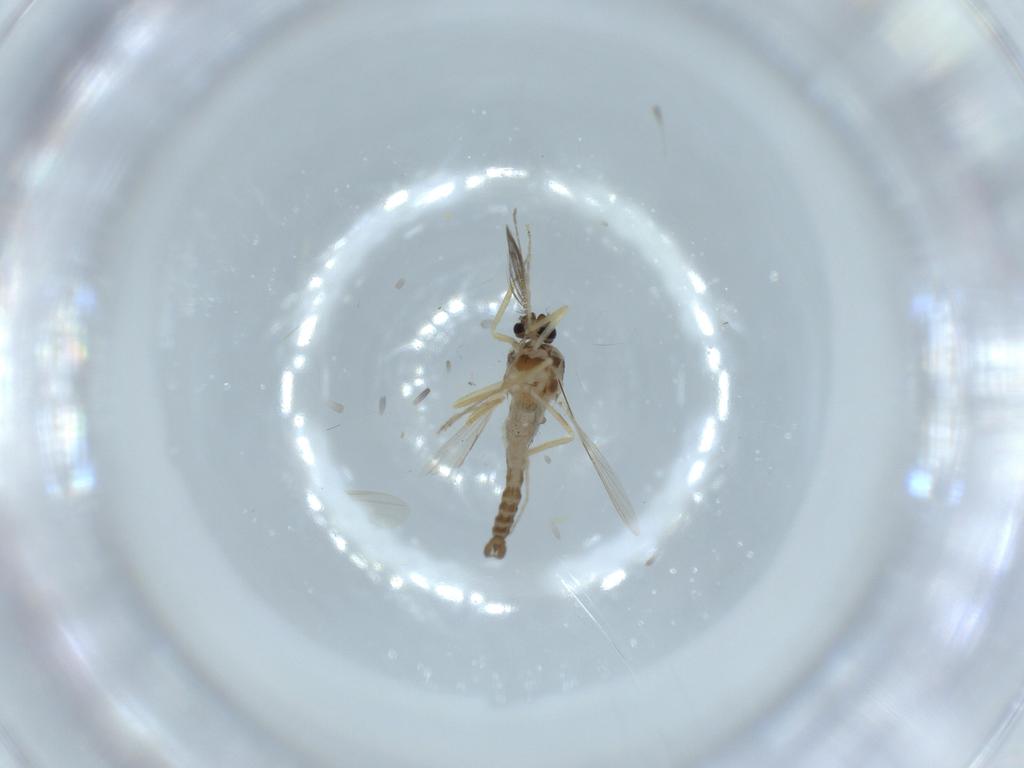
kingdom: Animalia
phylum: Arthropoda
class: Insecta
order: Diptera
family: Ceratopogonidae
